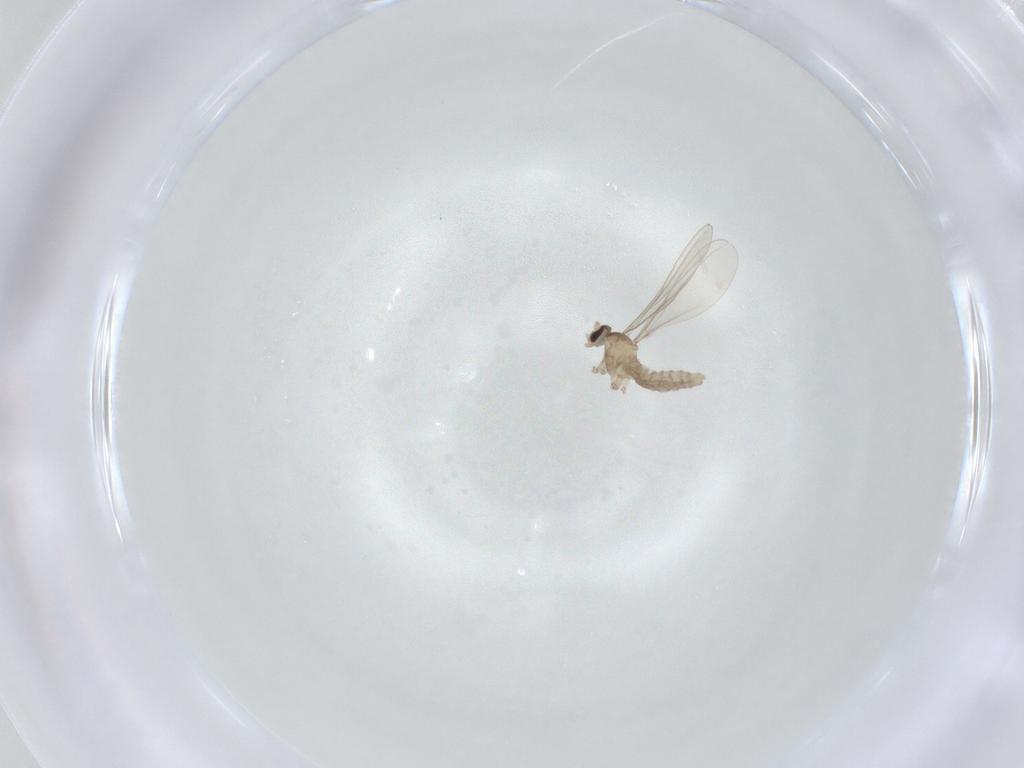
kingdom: Animalia
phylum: Arthropoda
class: Insecta
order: Diptera
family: Cecidomyiidae
